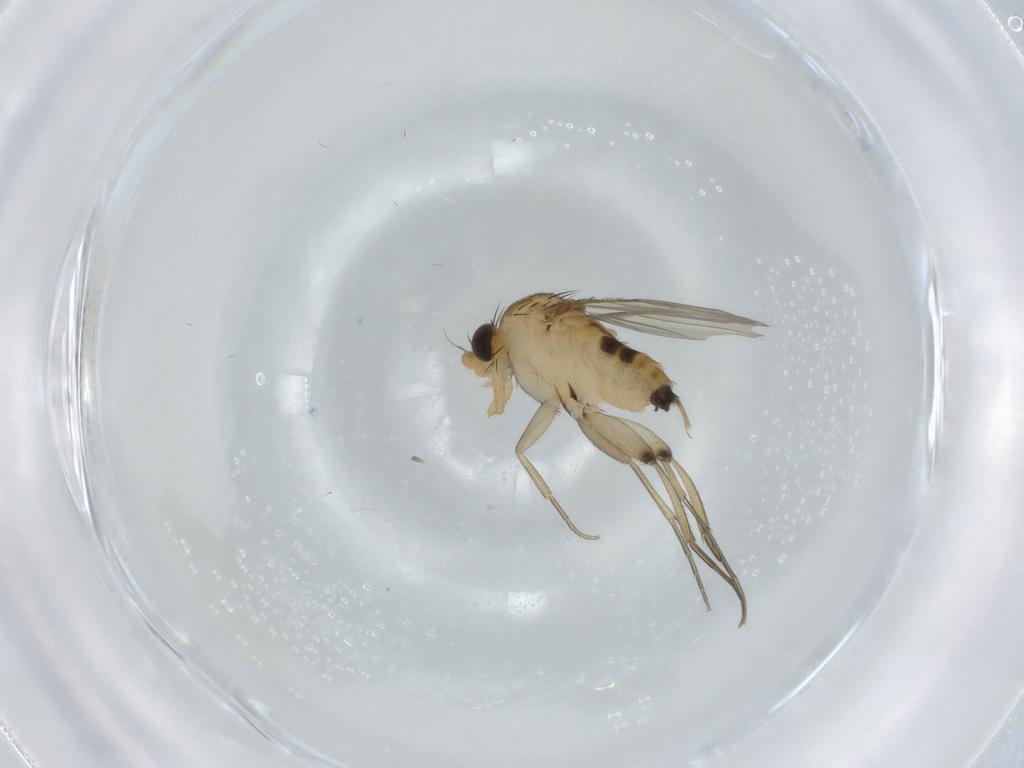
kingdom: Animalia
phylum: Arthropoda
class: Insecta
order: Diptera
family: Phoridae
